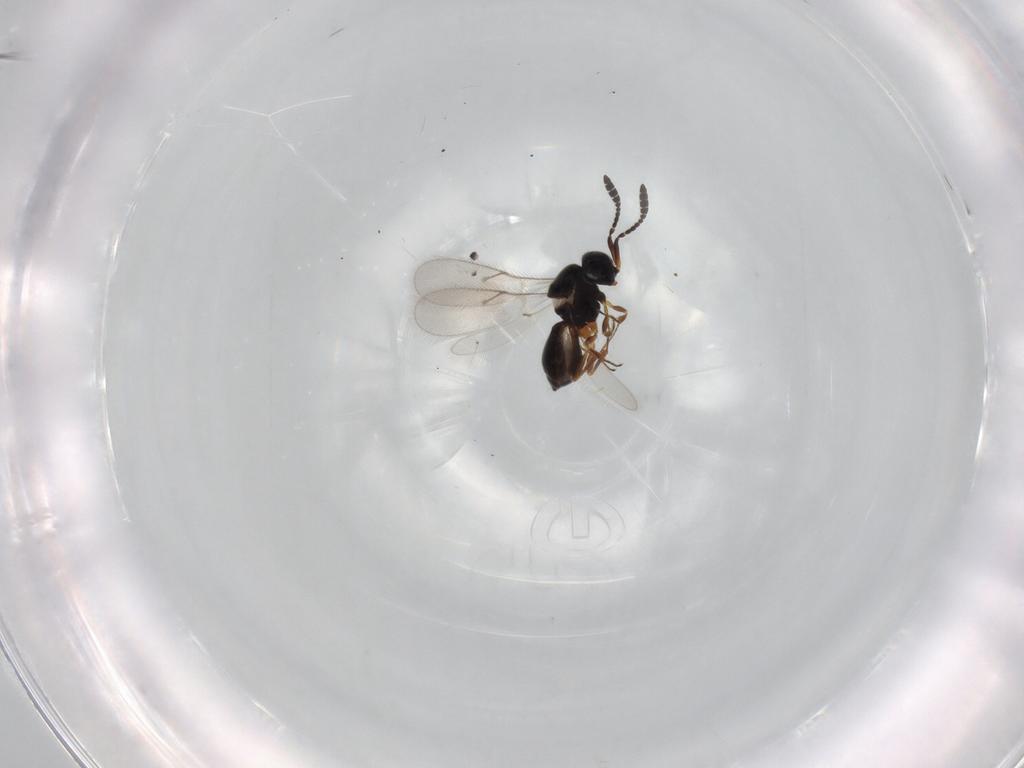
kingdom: Animalia
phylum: Arthropoda
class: Insecta
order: Hymenoptera
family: Scelionidae
